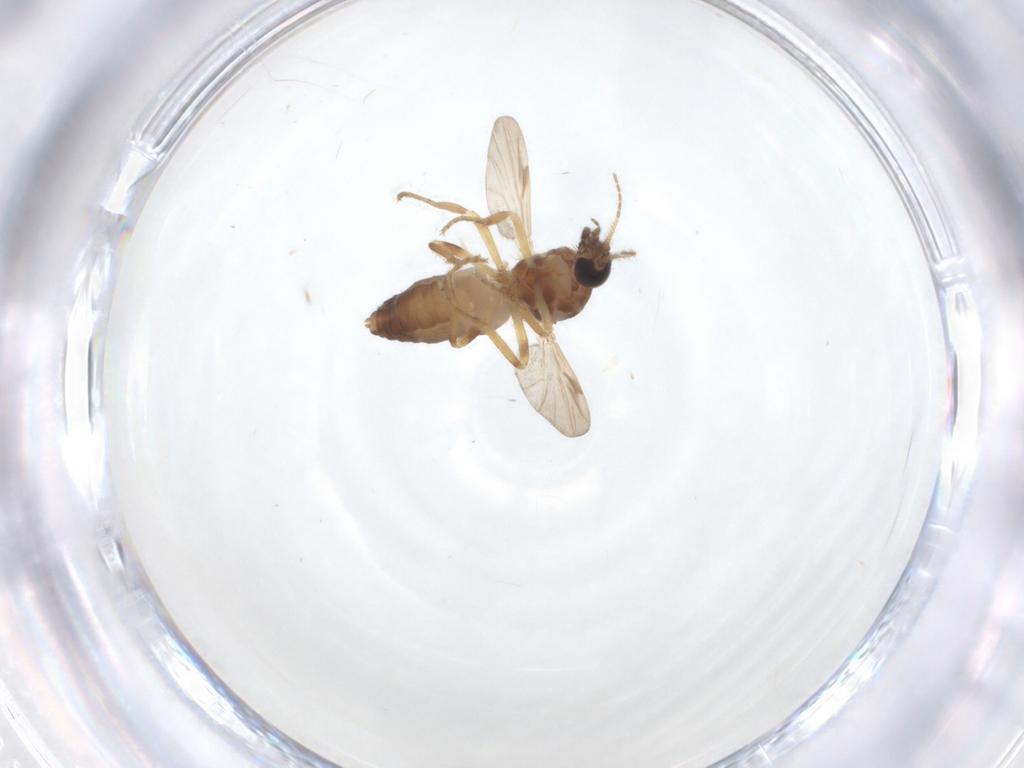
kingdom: Animalia
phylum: Arthropoda
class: Insecta
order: Diptera
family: Ceratopogonidae
